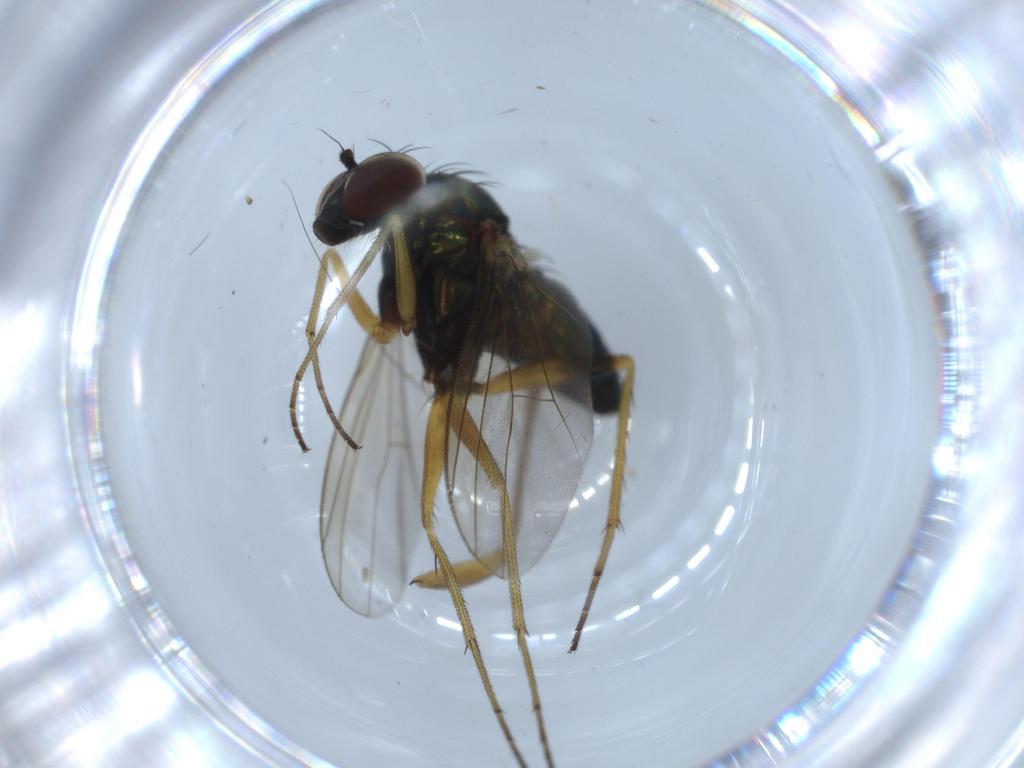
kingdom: Animalia
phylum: Arthropoda
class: Insecta
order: Diptera
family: Dolichopodidae
